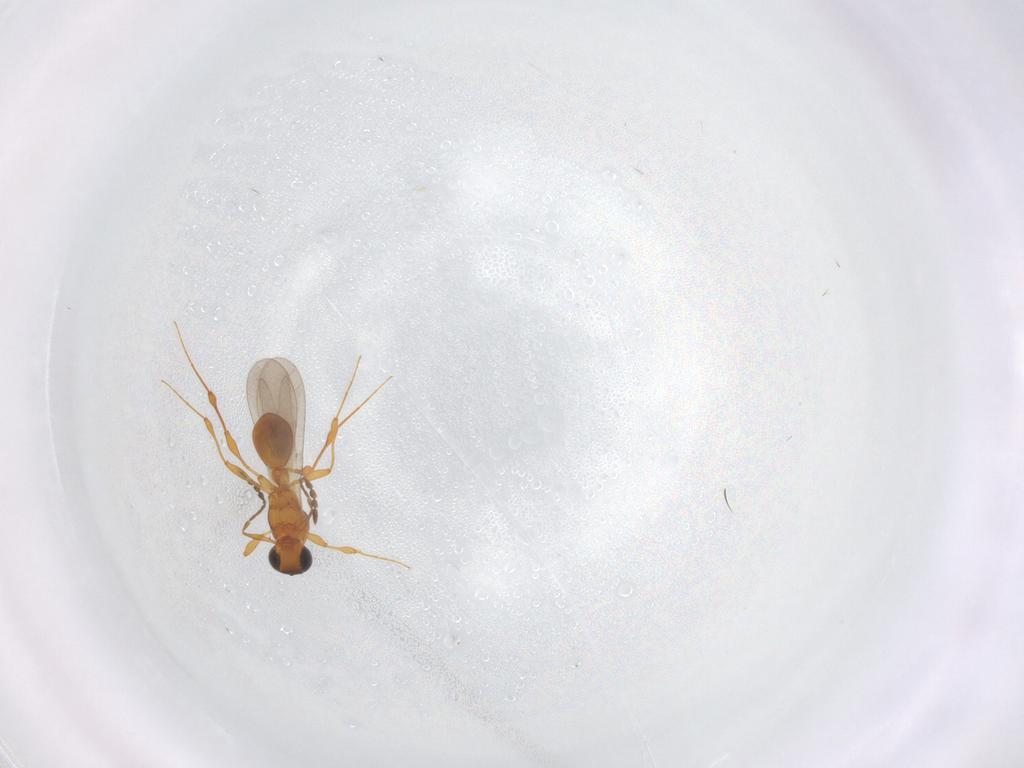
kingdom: Animalia
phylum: Arthropoda
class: Insecta
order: Hymenoptera
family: Platygastridae
